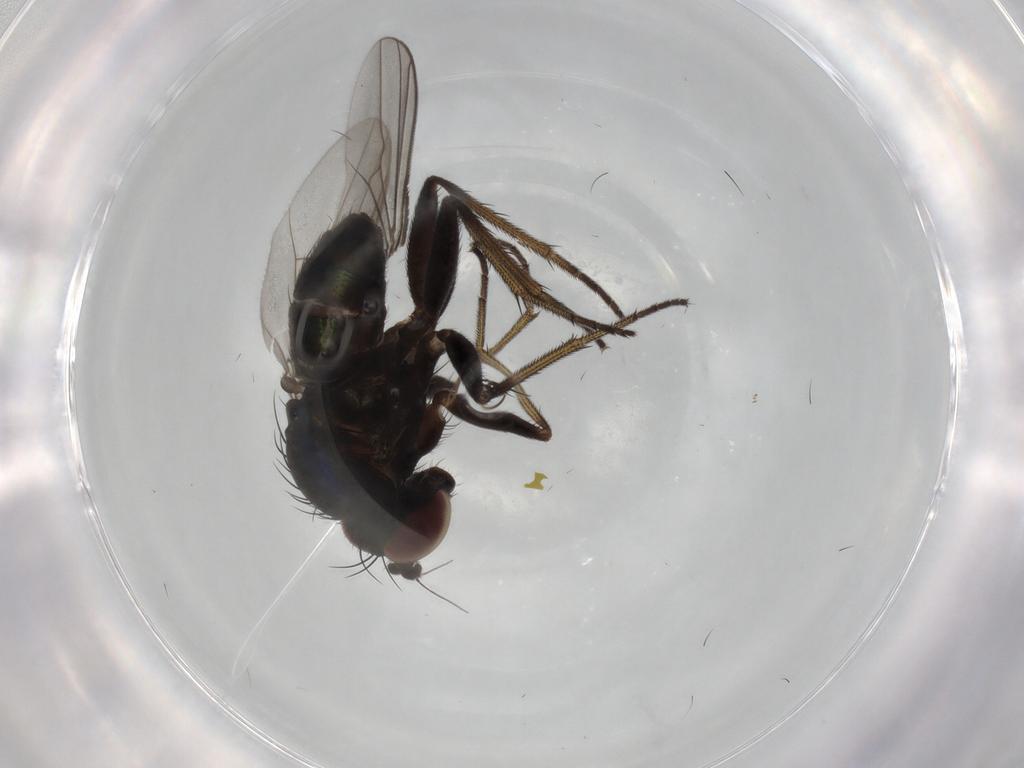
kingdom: Animalia
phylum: Arthropoda
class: Insecta
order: Diptera
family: Dolichopodidae
